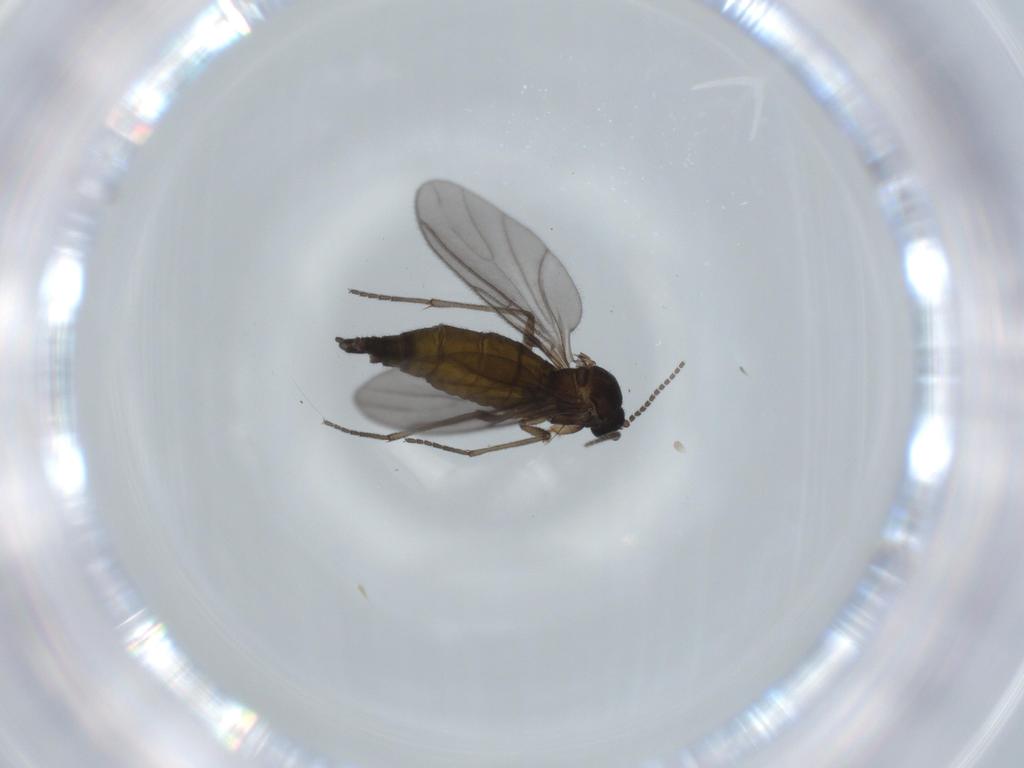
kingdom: Animalia
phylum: Arthropoda
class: Insecta
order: Diptera
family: Sciaridae
